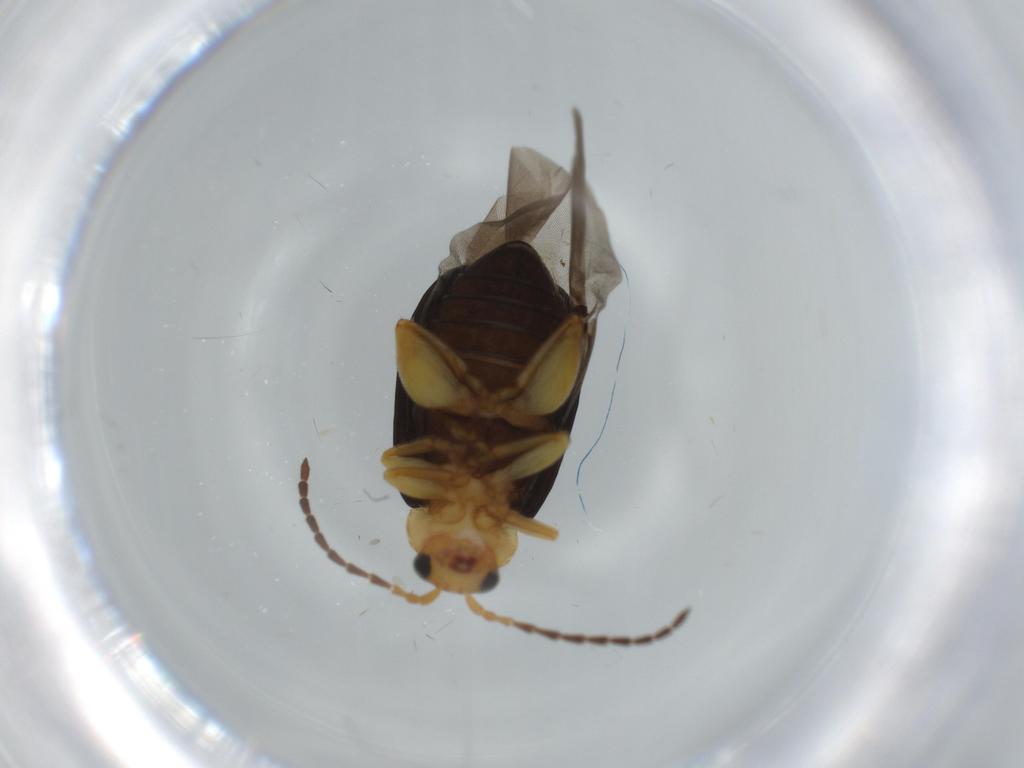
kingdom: Animalia
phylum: Arthropoda
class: Insecta
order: Coleoptera
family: Chrysomelidae
